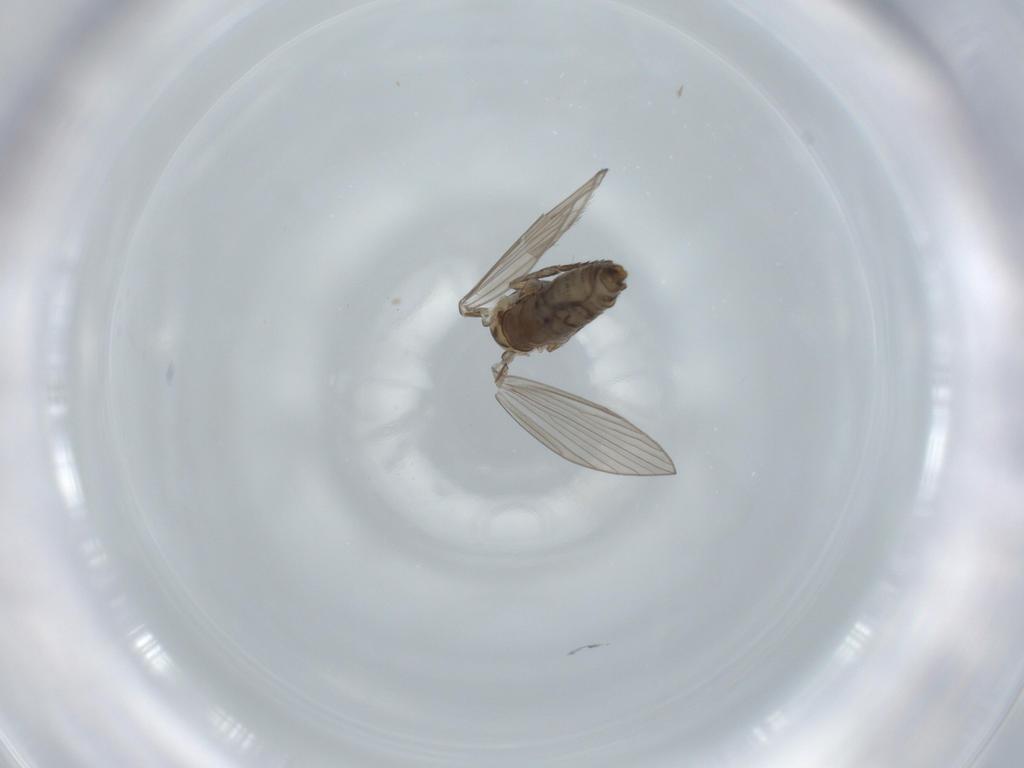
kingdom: Animalia
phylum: Arthropoda
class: Insecta
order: Diptera
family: Psychodidae
